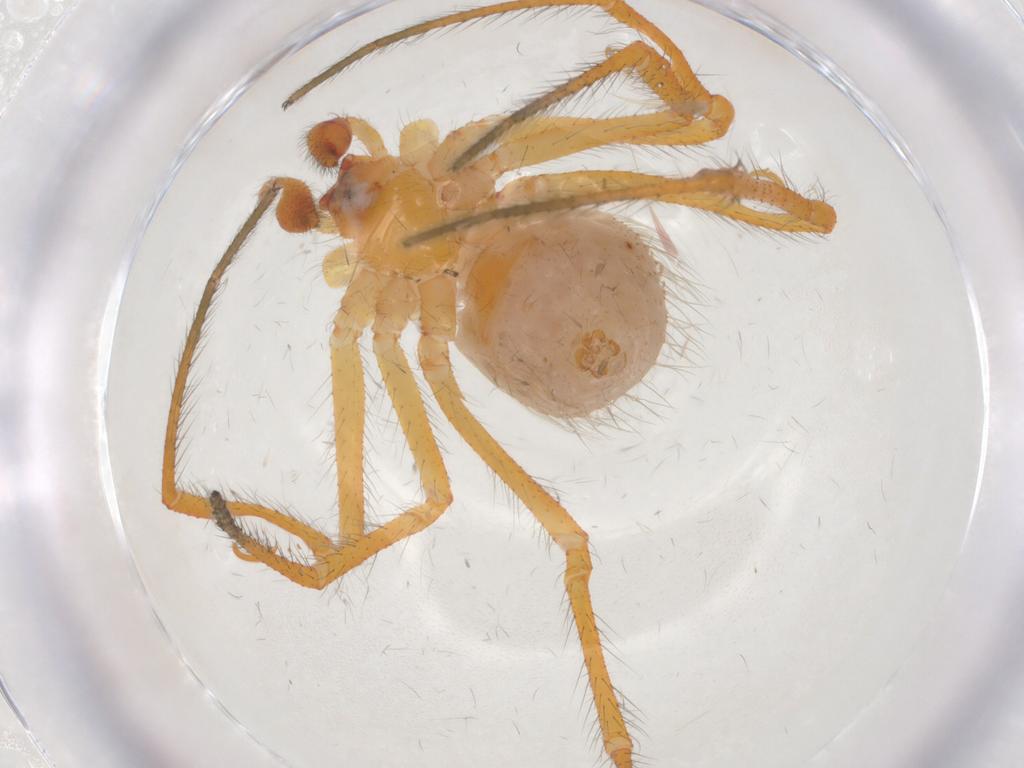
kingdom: Animalia
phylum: Arthropoda
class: Arachnida
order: Araneae
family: Theridiidae
